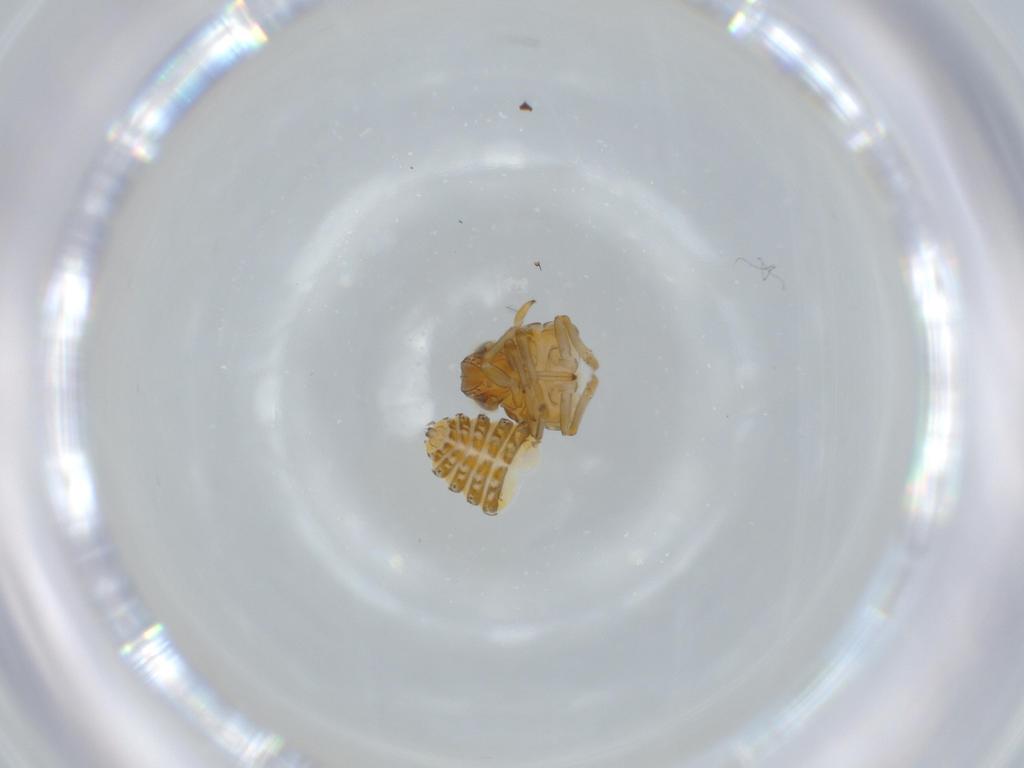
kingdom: Animalia
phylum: Arthropoda
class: Insecta
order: Hemiptera
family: Issidae
